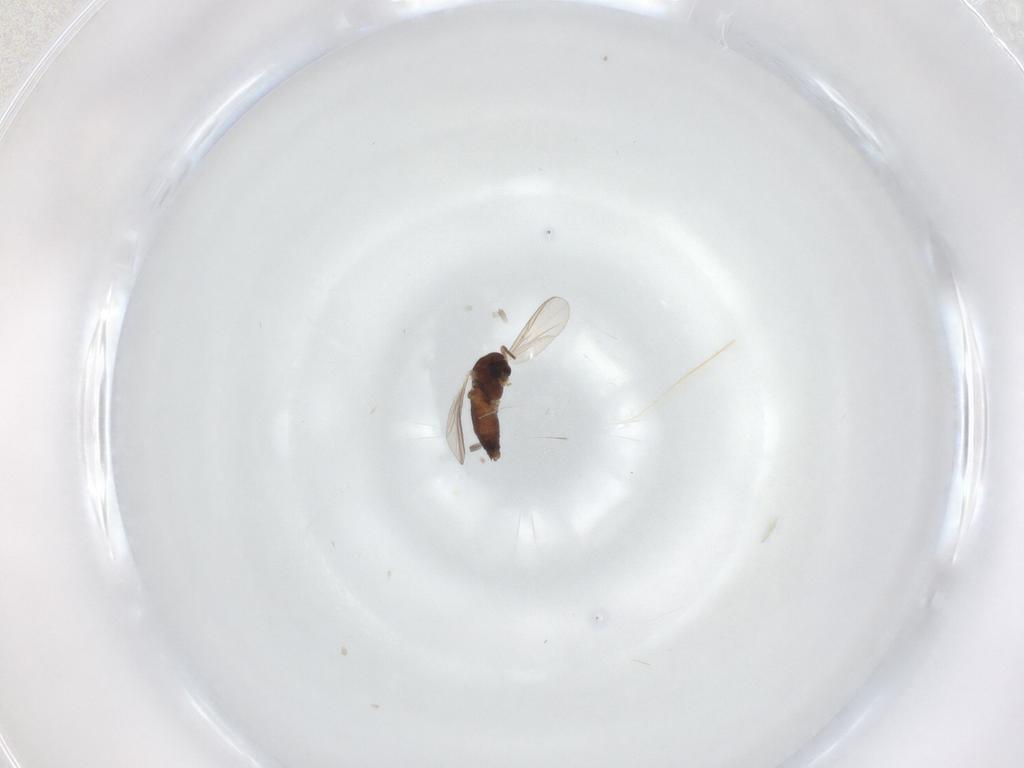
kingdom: Animalia
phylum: Arthropoda
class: Insecta
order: Diptera
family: Chironomidae
